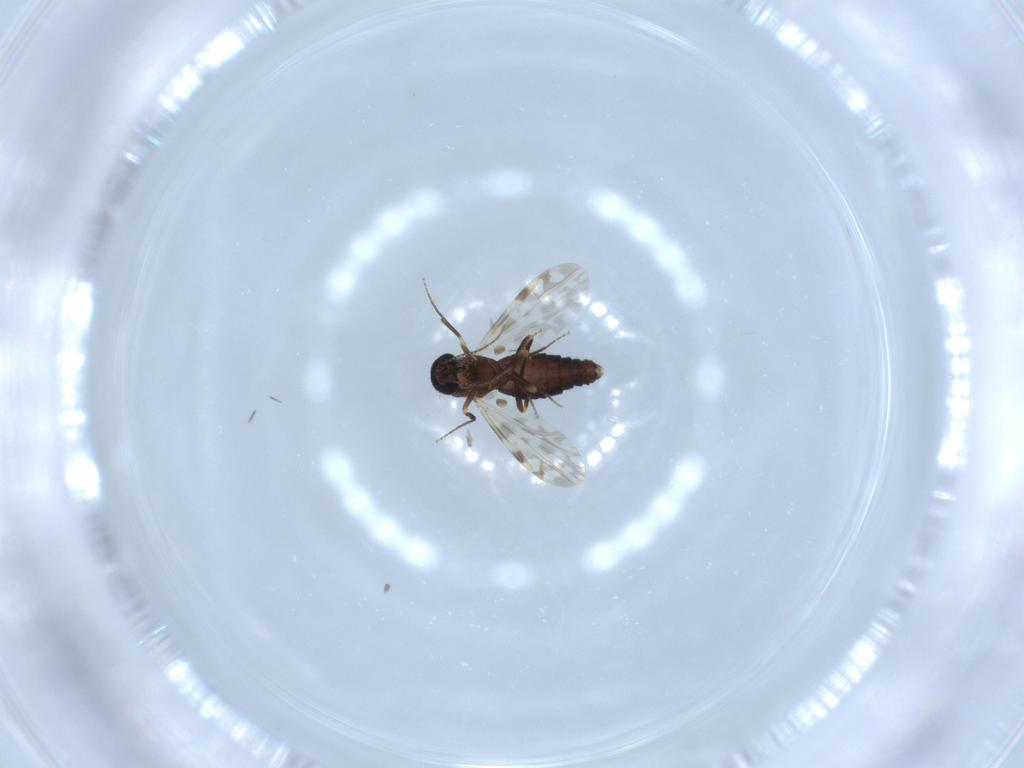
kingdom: Animalia
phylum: Arthropoda
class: Insecta
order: Diptera
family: Ceratopogonidae
